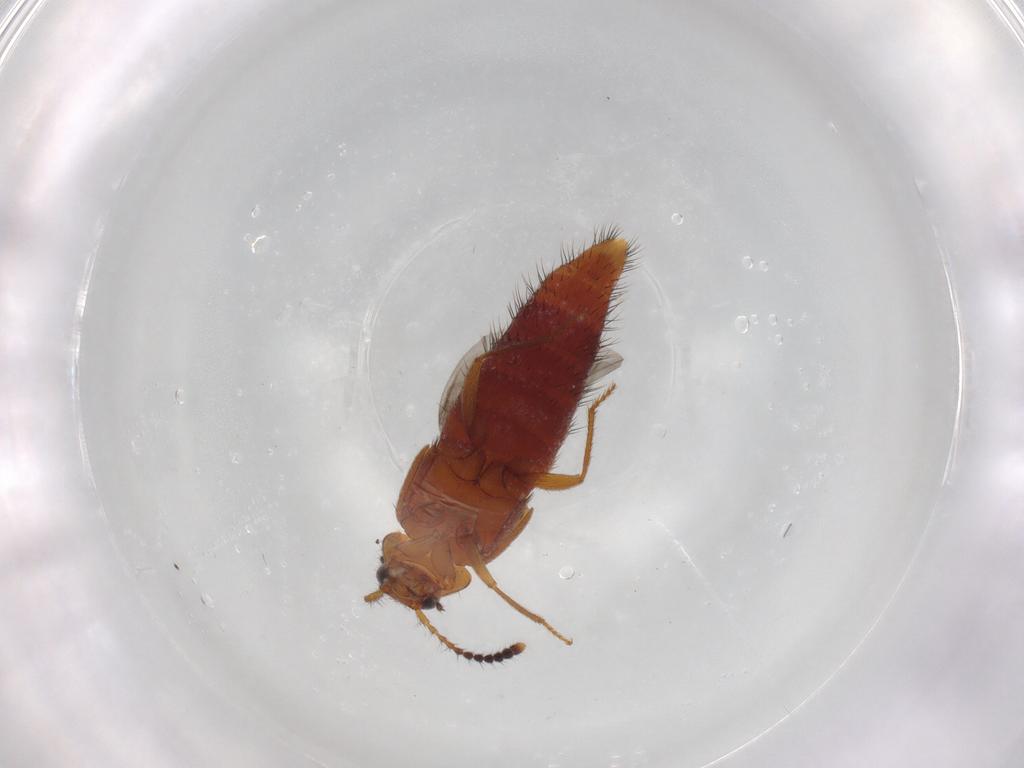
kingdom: Animalia
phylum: Arthropoda
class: Insecta
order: Coleoptera
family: Staphylinidae
